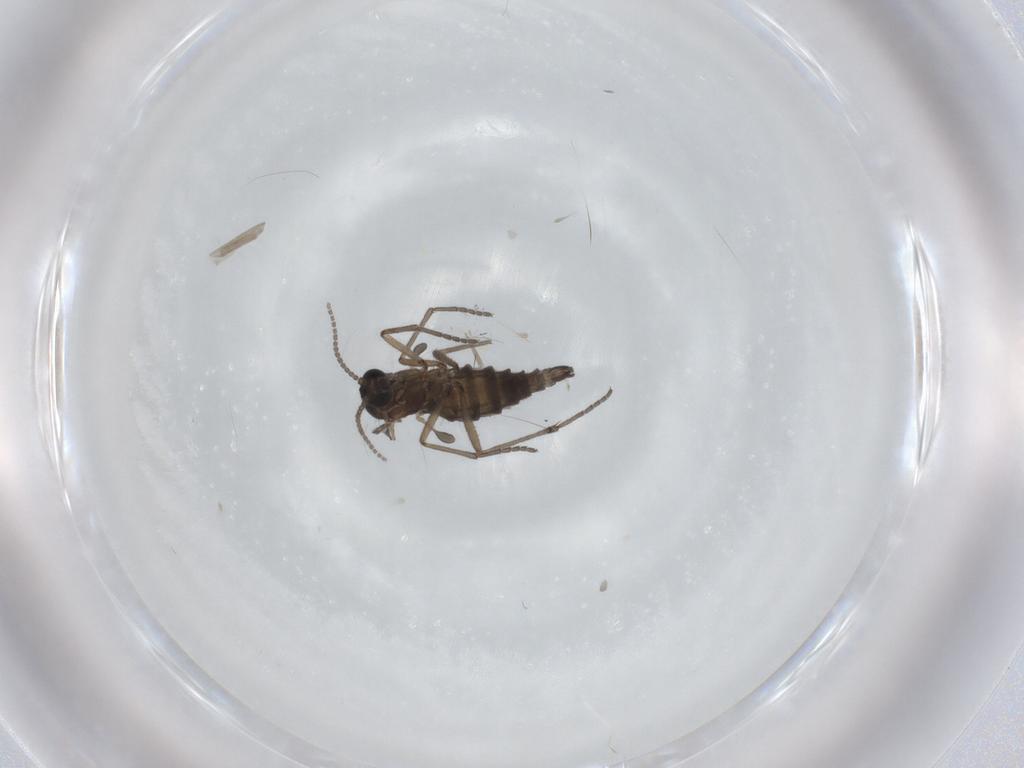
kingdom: Animalia
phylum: Arthropoda
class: Insecta
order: Diptera
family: Sciaridae
